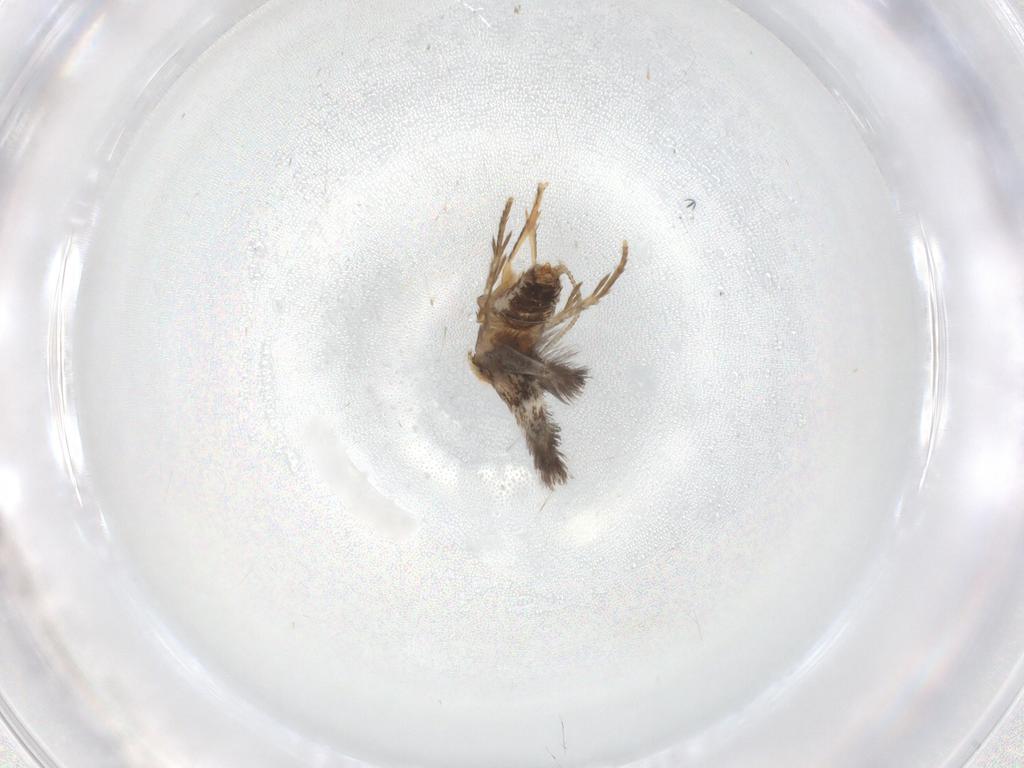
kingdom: Animalia
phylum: Arthropoda
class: Insecta
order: Lepidoptera
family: Nepticulidae
